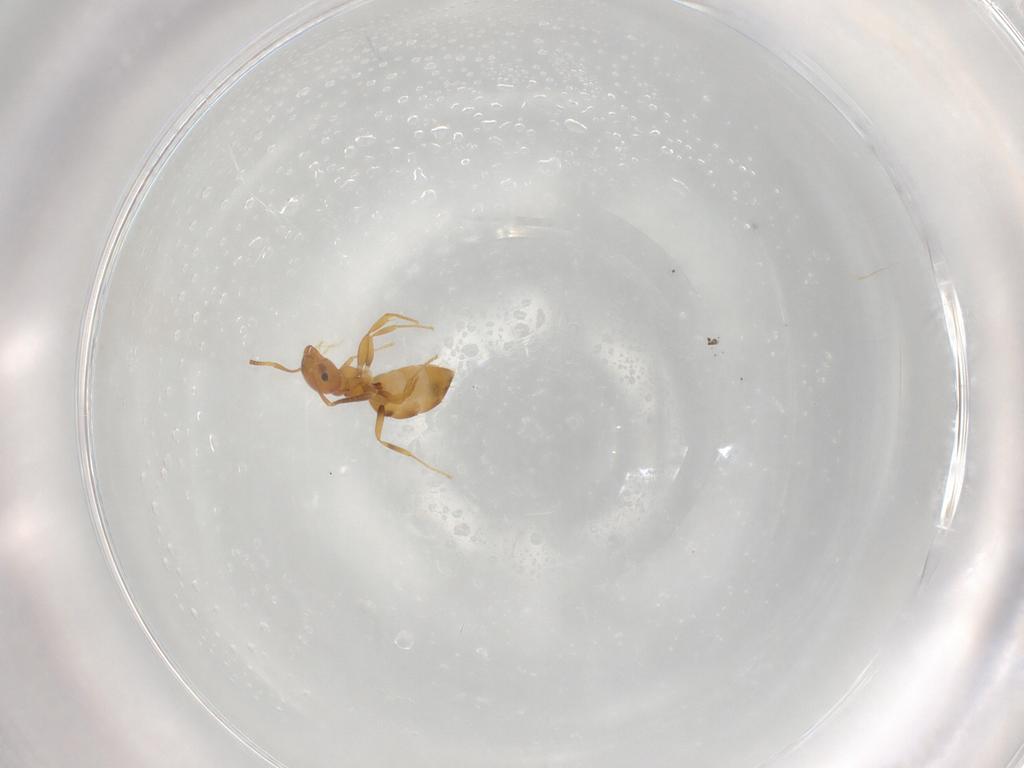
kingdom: Animalia
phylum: Arthropoda
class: Insecta
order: Hymenoptera
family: Formicidae
